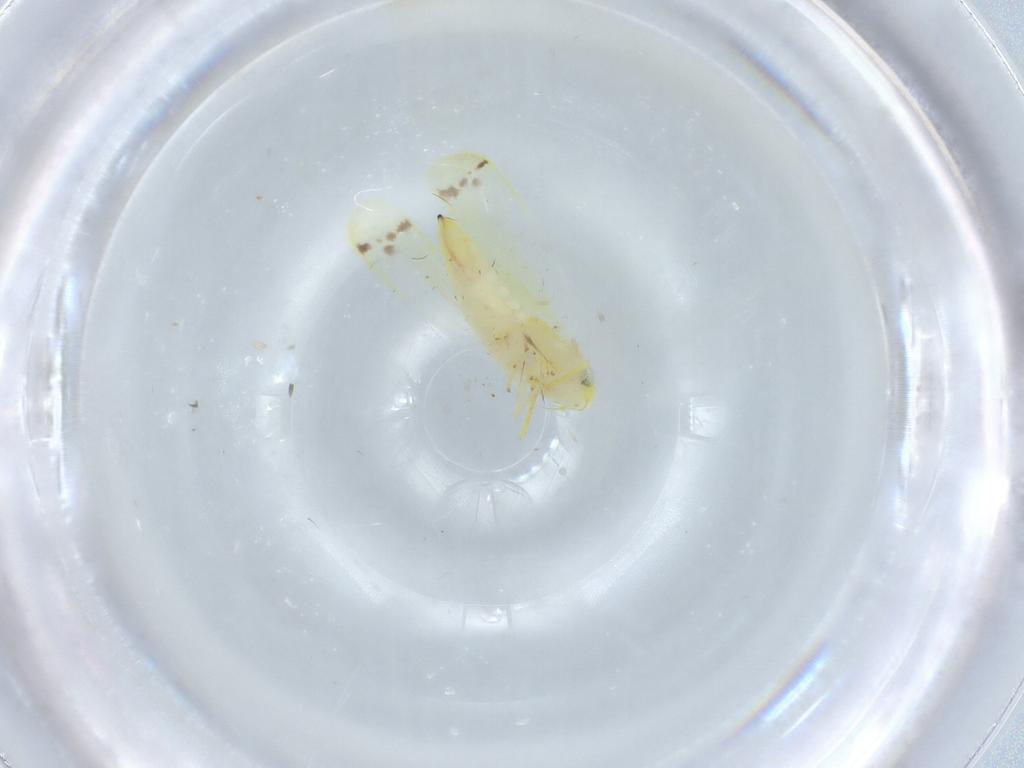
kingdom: Animalia
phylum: Arthropoda
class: Insecta
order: Hemiptera
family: Cicadellidae
